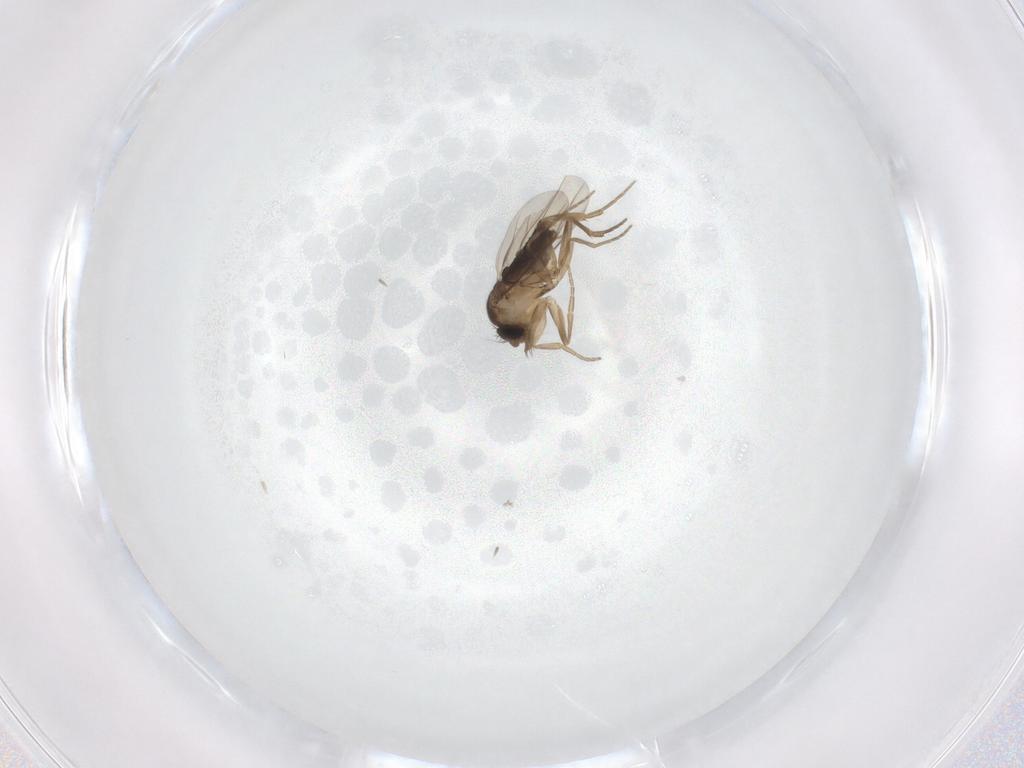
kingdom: Animalia
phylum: Arthropoda
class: Insecta
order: Diptera
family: Phoridae
